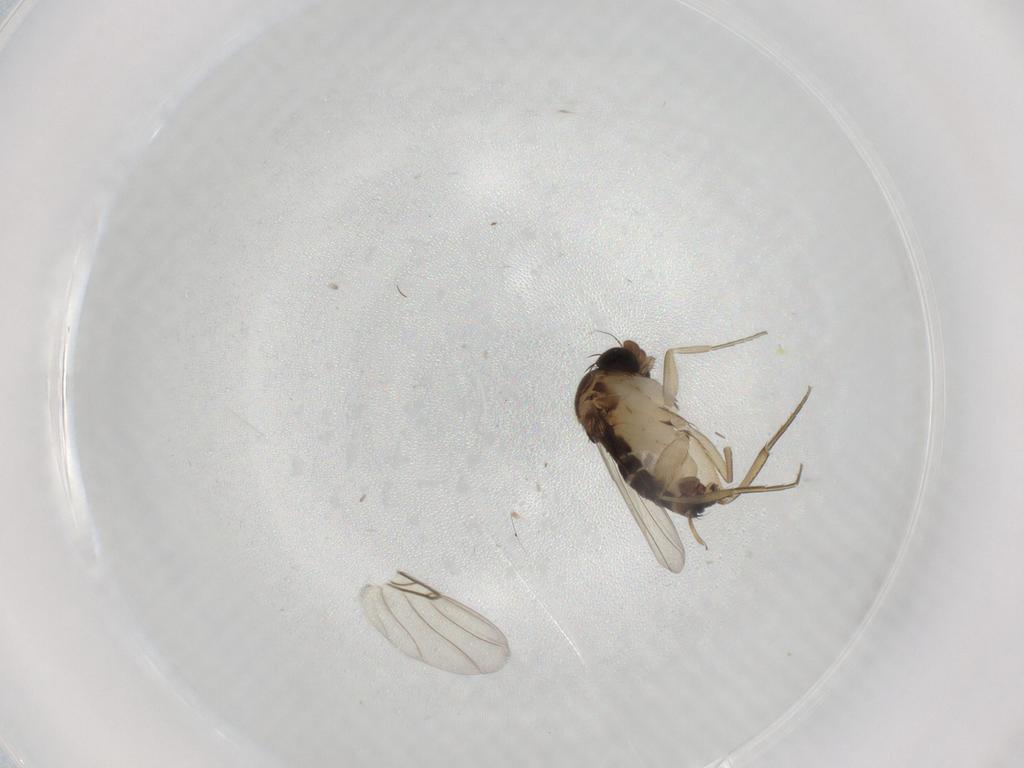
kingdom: Animalia
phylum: Arthropoda
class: Insecta
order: Diptera
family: Phoridae
